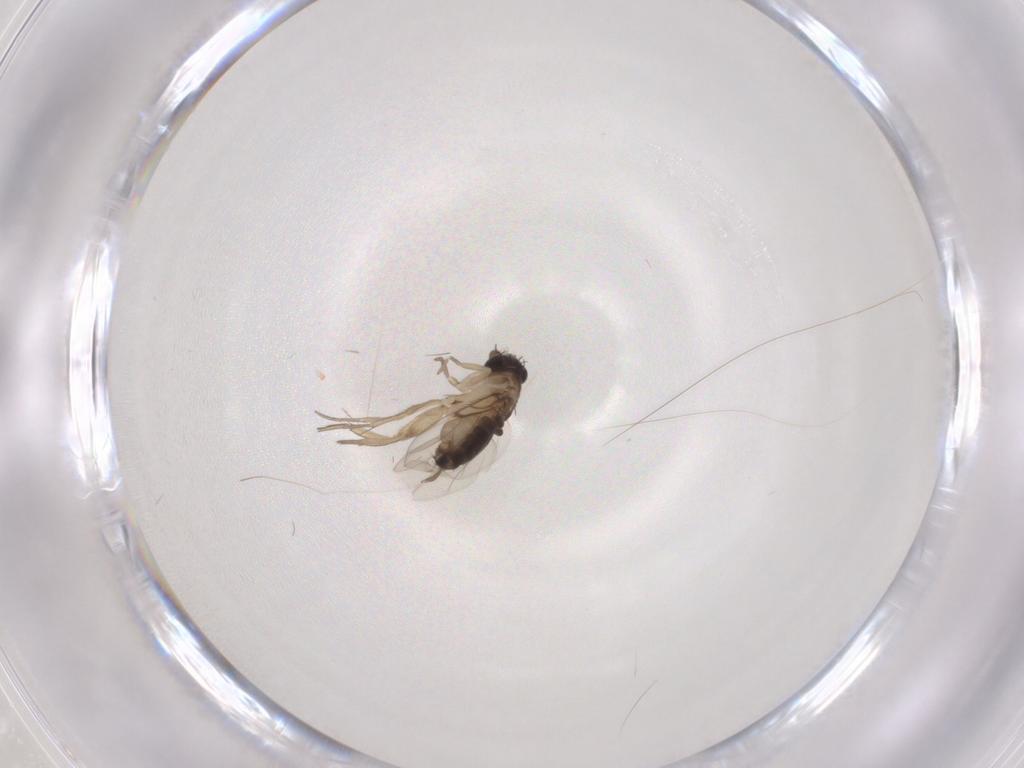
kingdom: Animalia
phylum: Arthropoda
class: Insecta
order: Diptera
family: Phoridae
